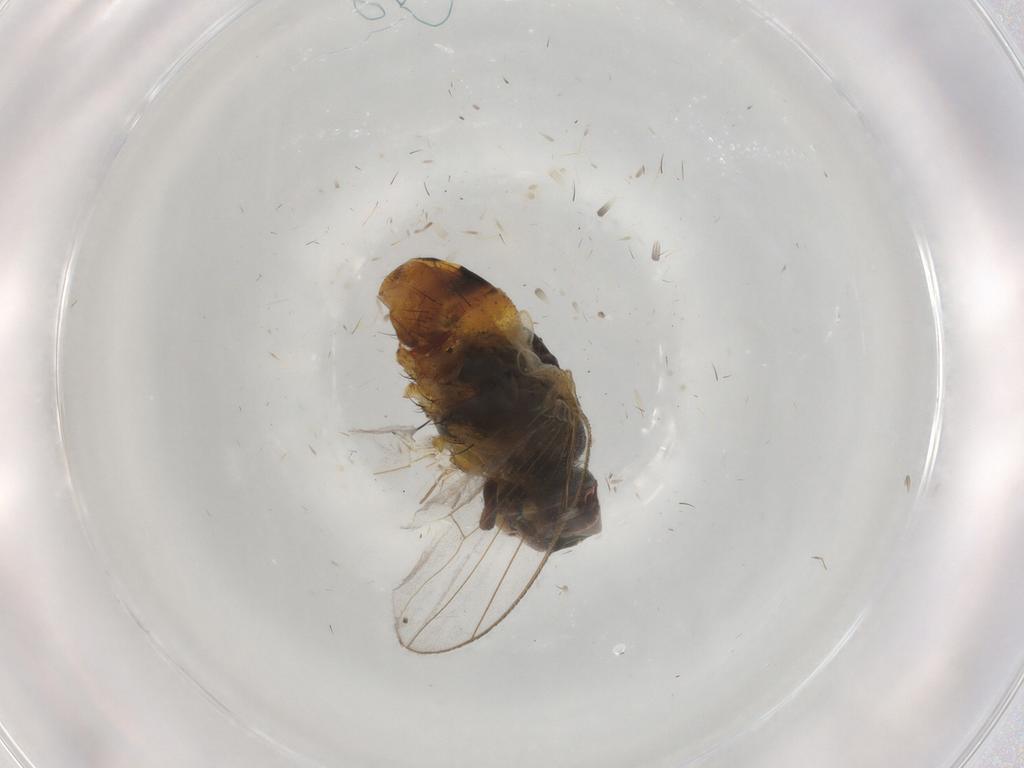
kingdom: Animalia
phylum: Arthropoda
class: Insecta
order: Diptera
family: Muscidae
